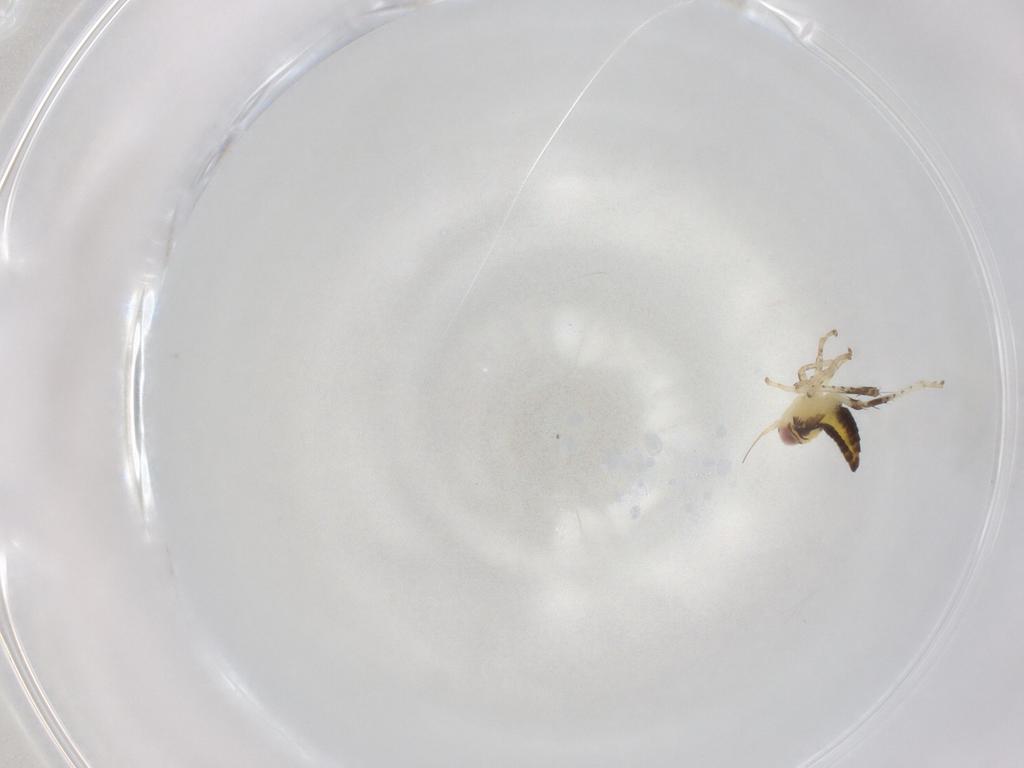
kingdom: Animalia
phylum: Arthropoda
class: Insecta
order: Hemiptera
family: Cicadellidae
